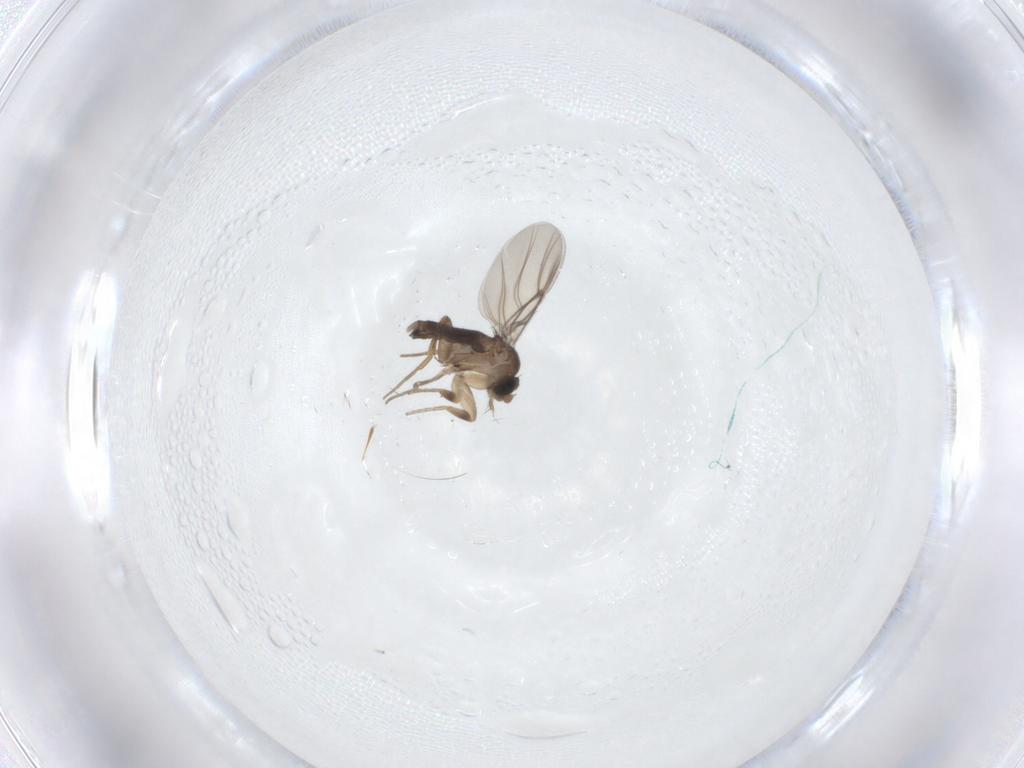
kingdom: Animalia
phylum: Arthropoda
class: Insecta
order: Diptera
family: Phoridae
